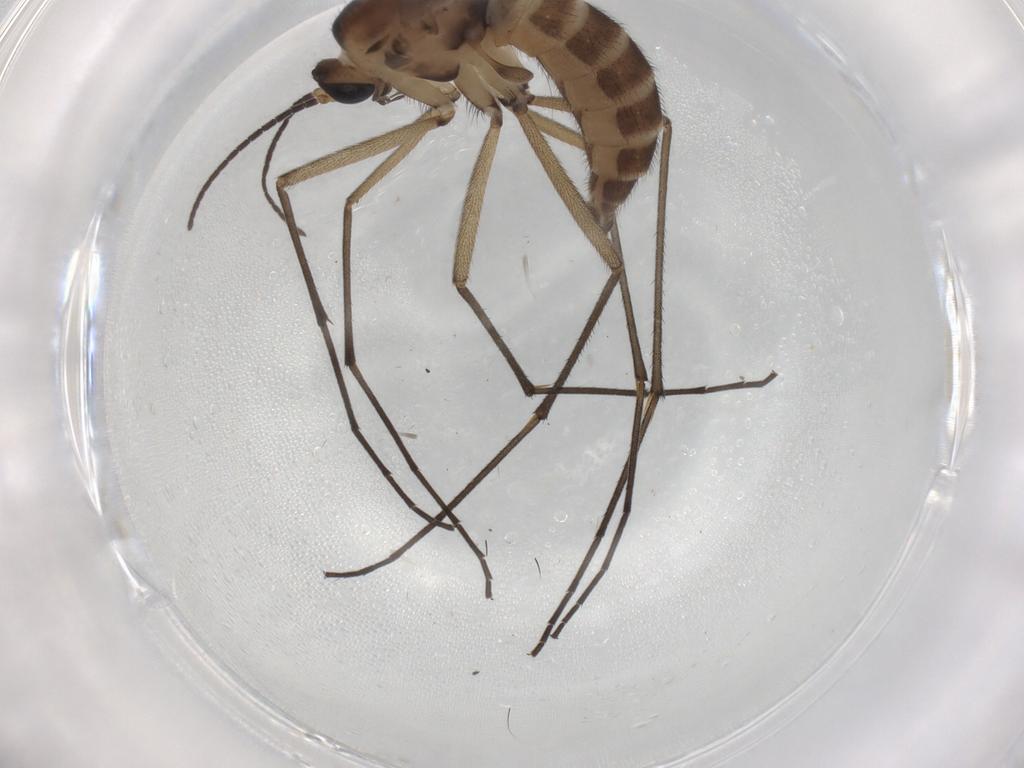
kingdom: Animalia
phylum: Arthropoda
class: Insecta
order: Diptera
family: Sciaridae
